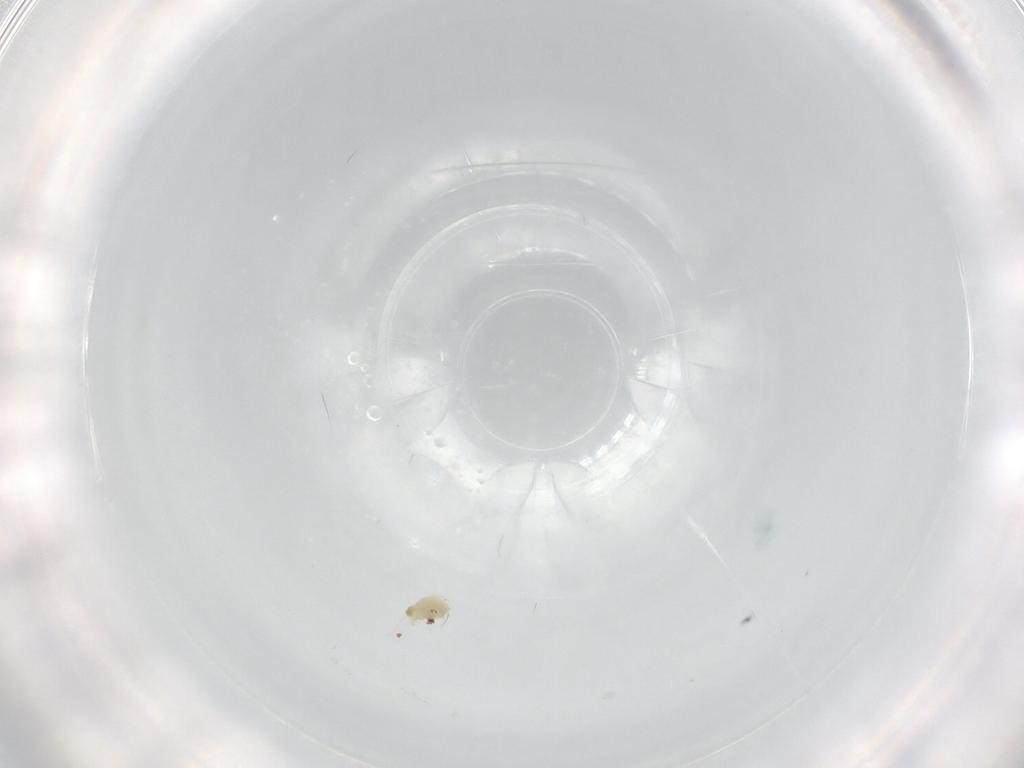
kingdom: Animalia
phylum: Arthropoda
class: Arachnida
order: Trombidiformes
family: Eupodidae
